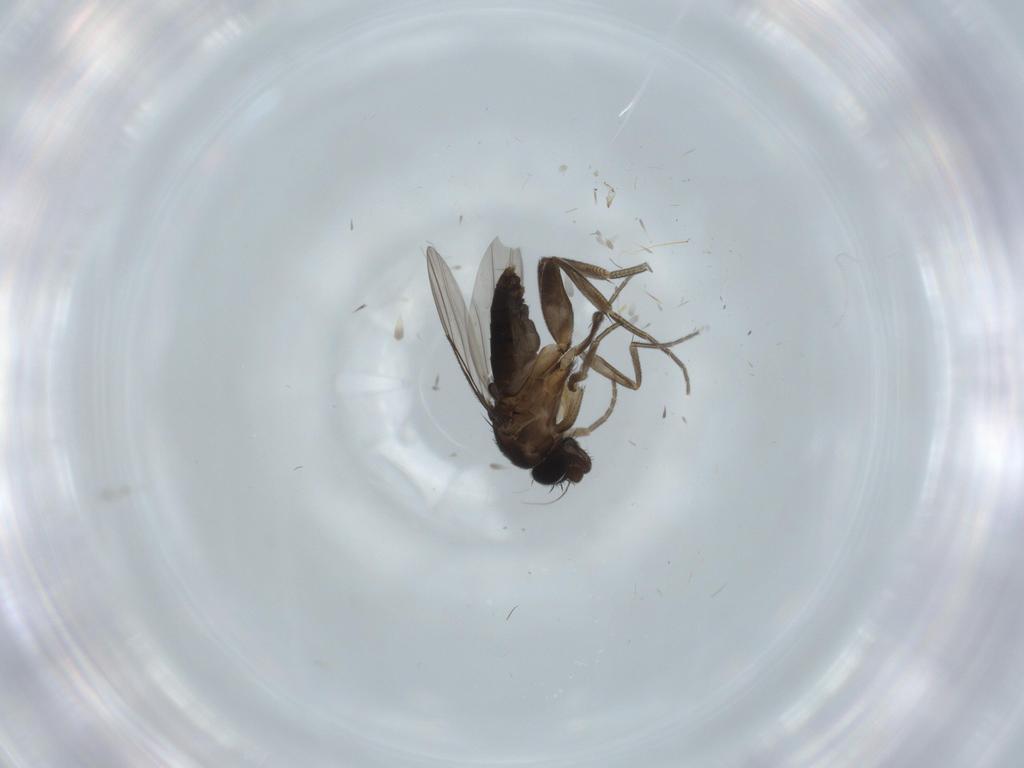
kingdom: Animalia
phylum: Arthropoda
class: Insecta
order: Diptera
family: Phoridae
